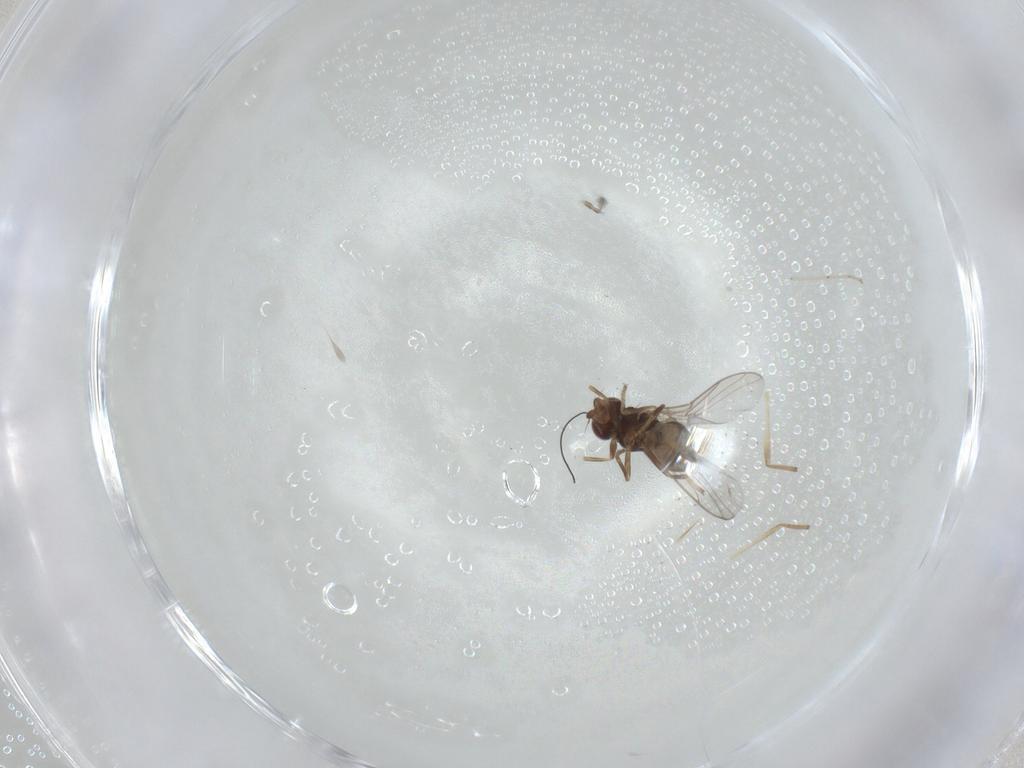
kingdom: Animalia
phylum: Arthropoda
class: Insecta
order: Diptera
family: Chloropidae
